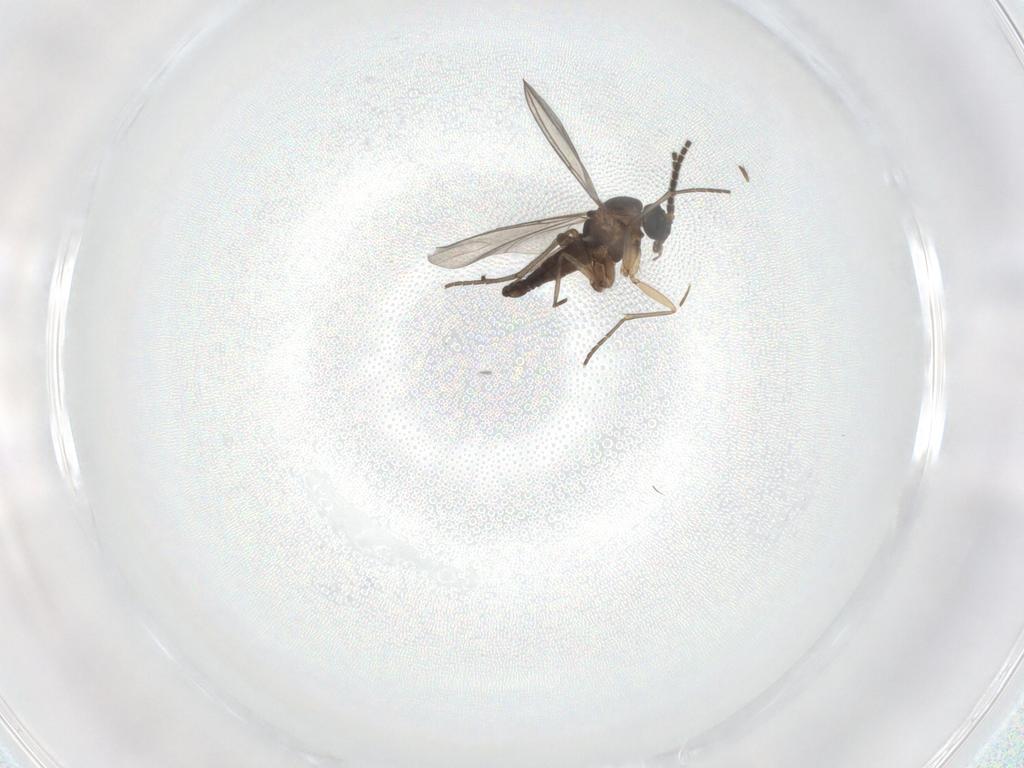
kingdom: Animalia
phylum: Arthropoda
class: Insecta
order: Diptera
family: Sciaridae
